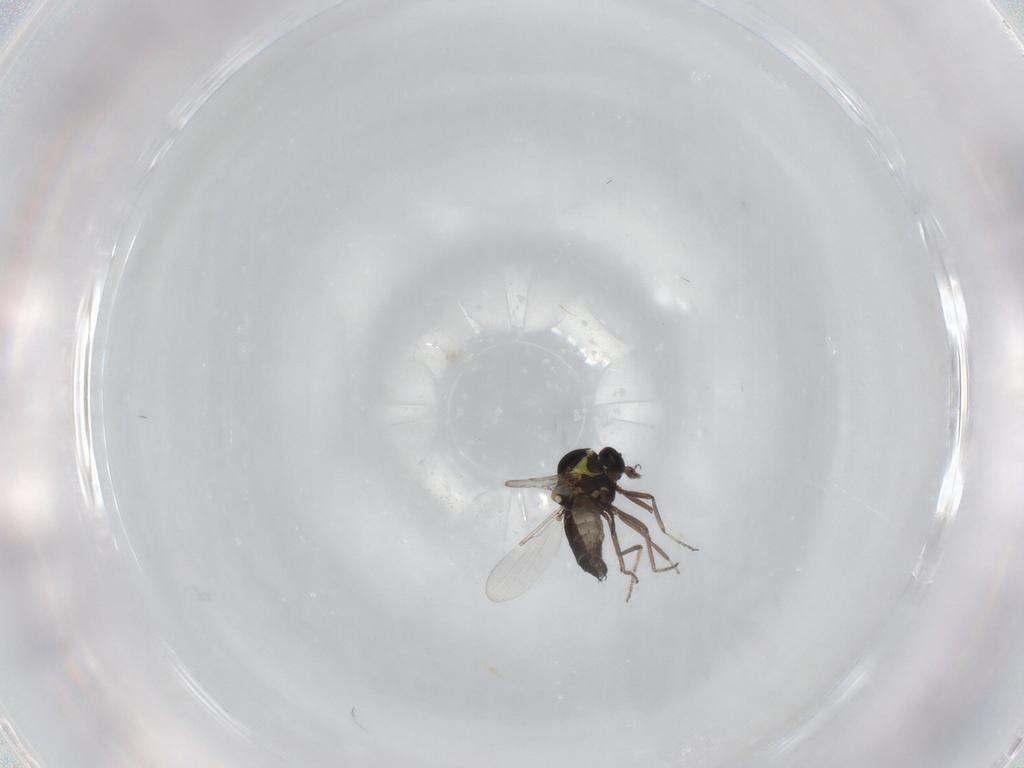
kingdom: Animalia
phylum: Arthropoda
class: Insecta
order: Diptera
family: Ceratopogonidae
